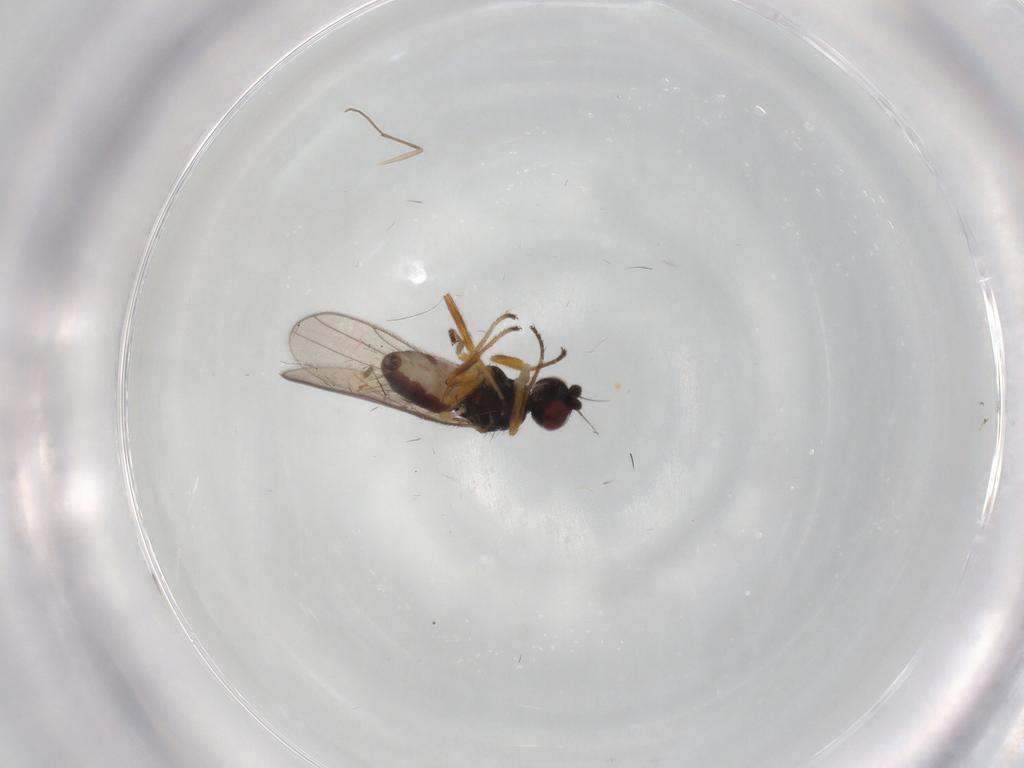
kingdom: Animalia
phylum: Arthropoda
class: Insecta
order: Diptera
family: Chloropidae
